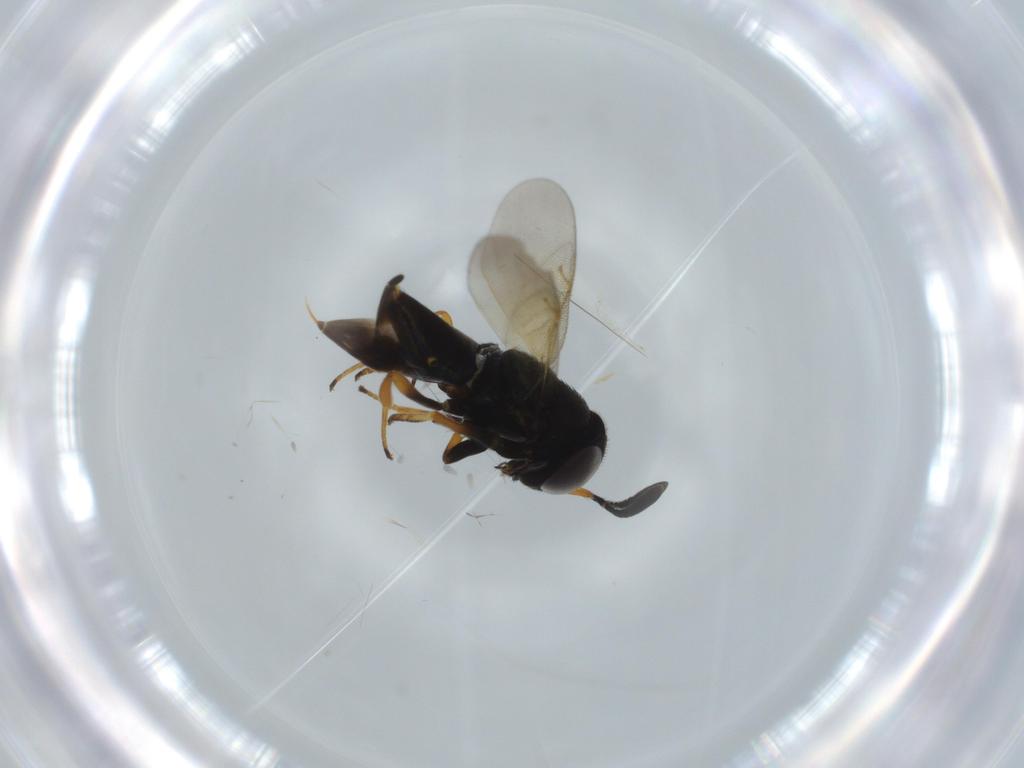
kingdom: Animalia
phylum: Arthropoda
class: Insecta
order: Hymenoptera
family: Encyrtidae
